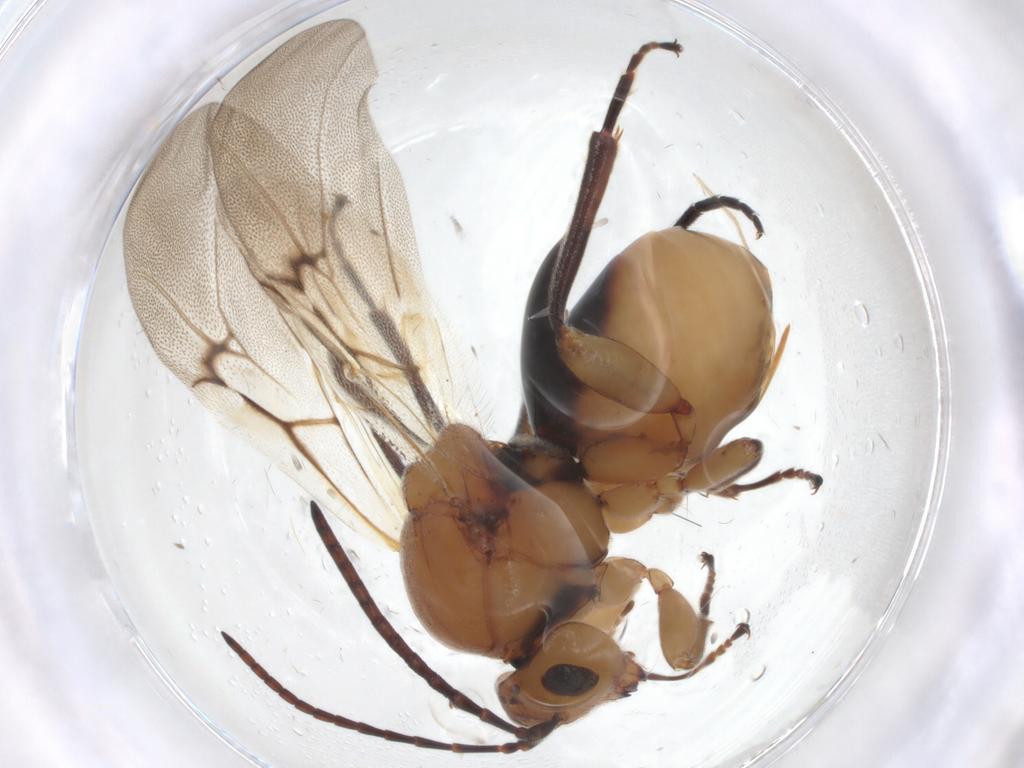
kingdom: Animalia
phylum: Arthropoda
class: Insecta
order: Hymenoptera
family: Cynipidae
